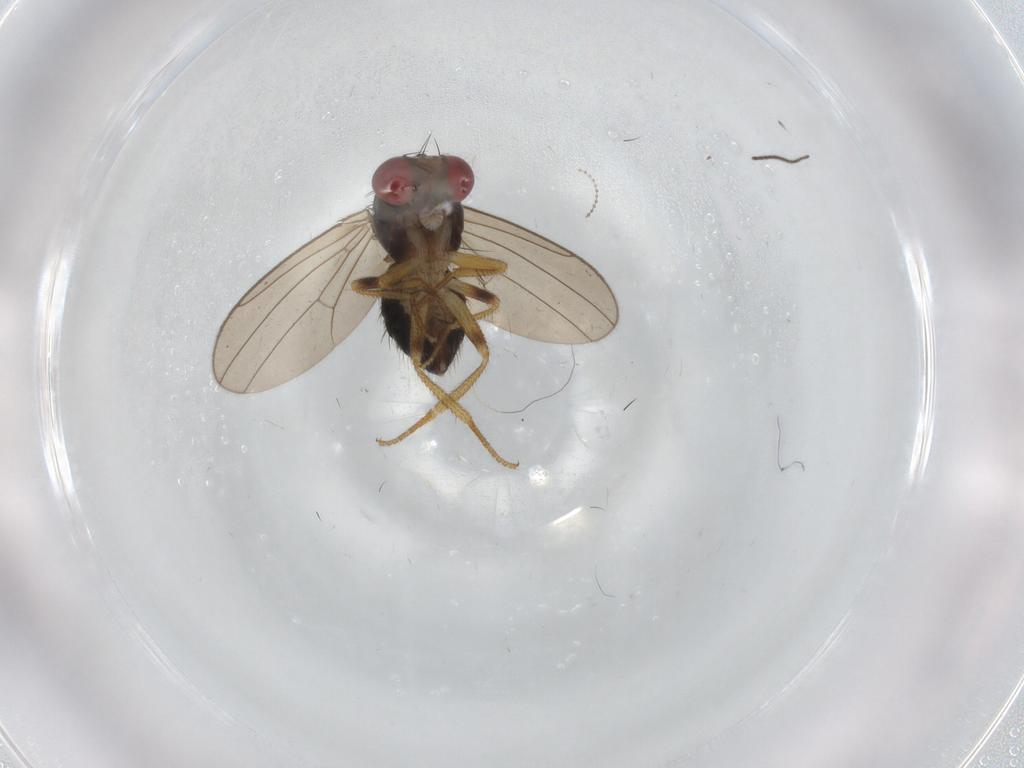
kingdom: Animalia
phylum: Arthropoda
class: Insecta
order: Diptera
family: Drosophilidae
